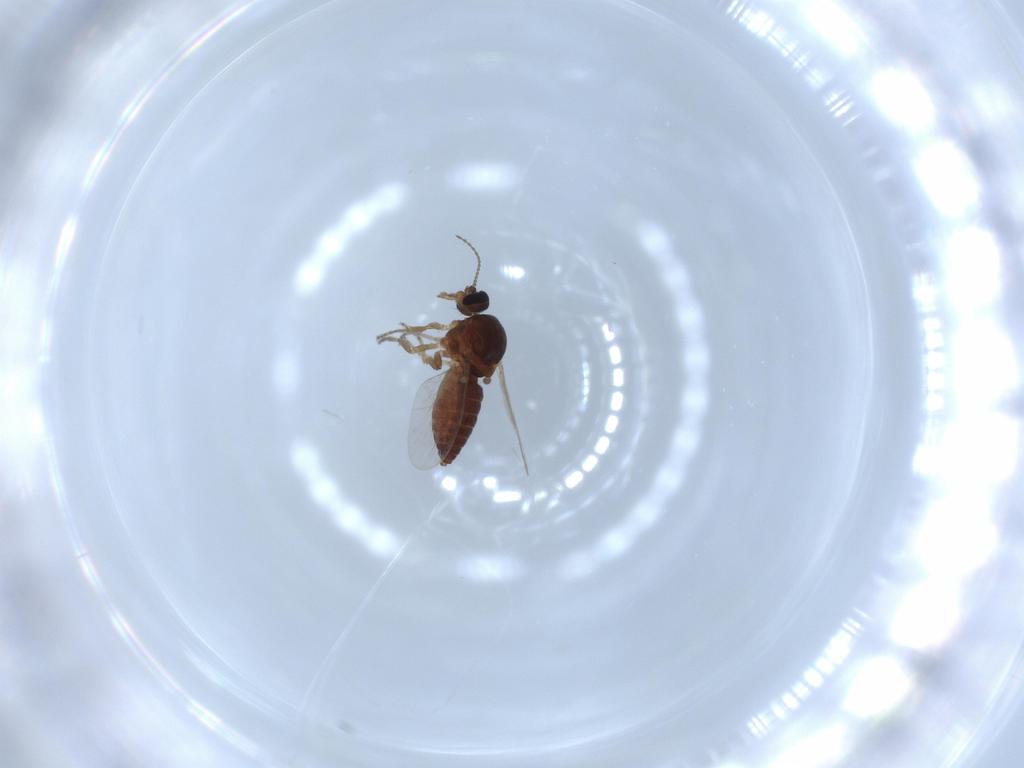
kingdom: Animalia
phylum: Arthropoda
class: Insecta
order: Diptera
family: Ceratopogonidae
